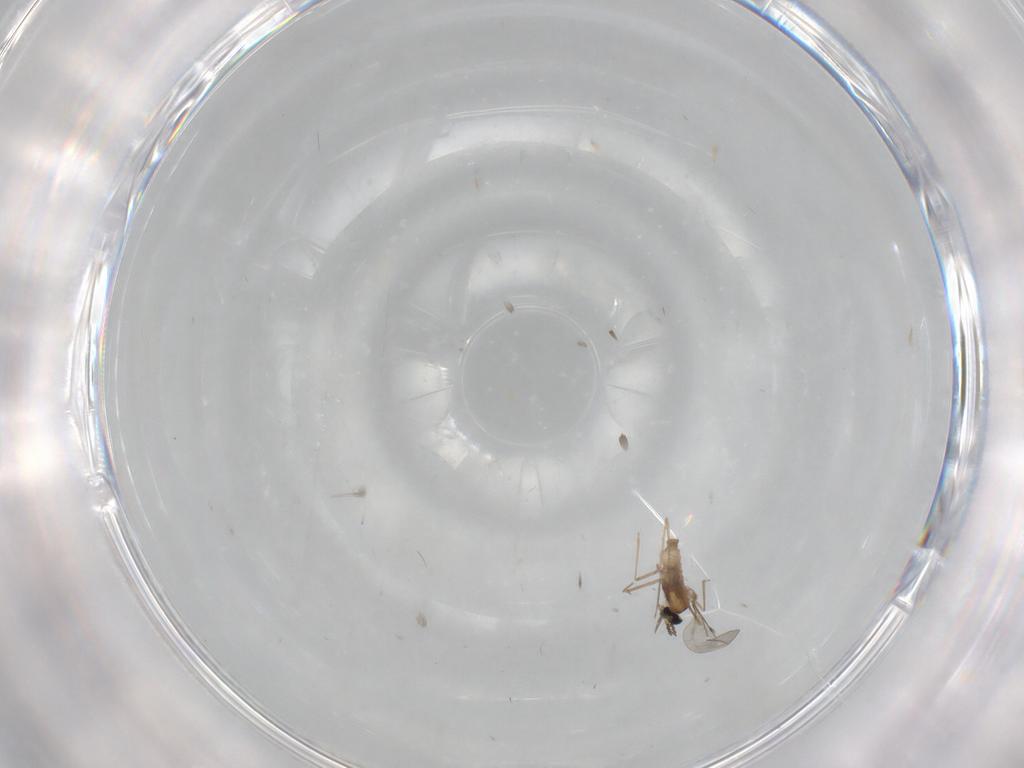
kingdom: Animalia
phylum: Arthropoda
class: Insecta
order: Diptera
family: Cecidomyiidae
